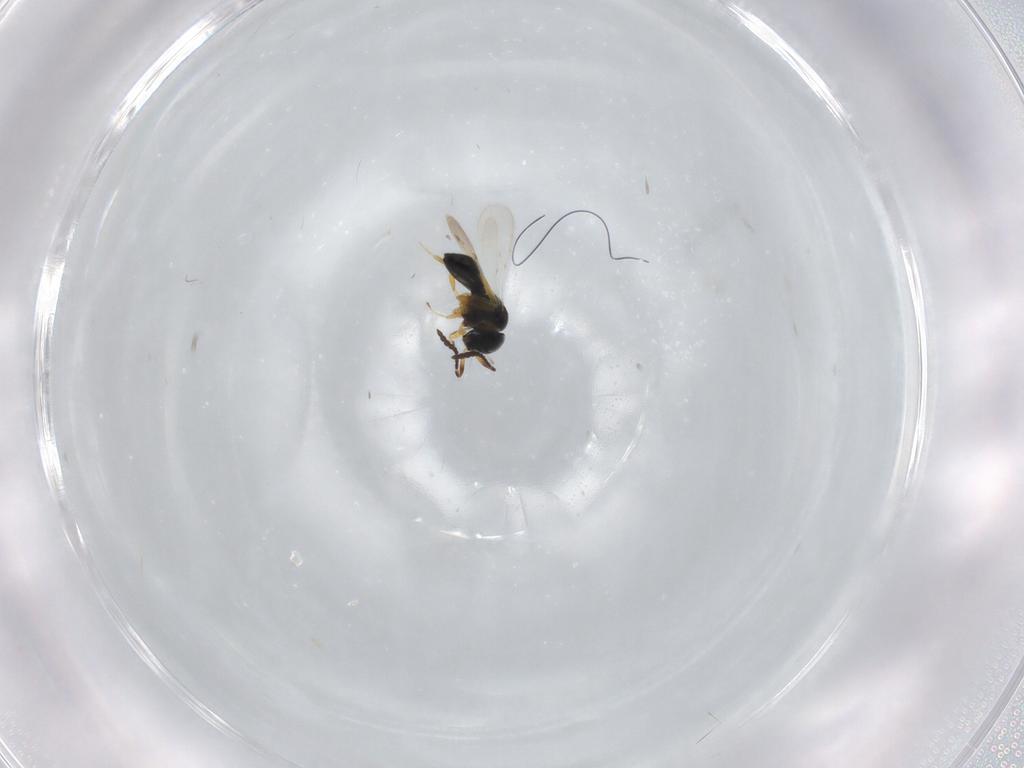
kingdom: Animalia
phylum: Arthropoda
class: Insecta
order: Hymenoptera
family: Scelionidae
